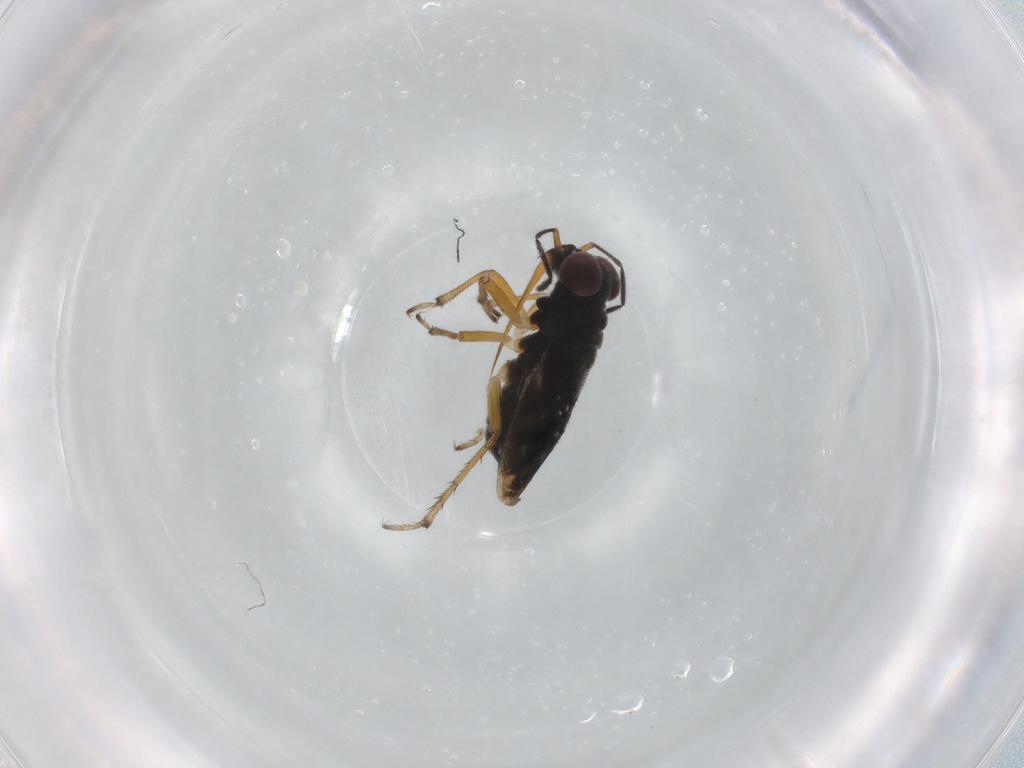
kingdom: Animalia
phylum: Arthropoda
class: Insecta
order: Hemiptera
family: Saldidae
